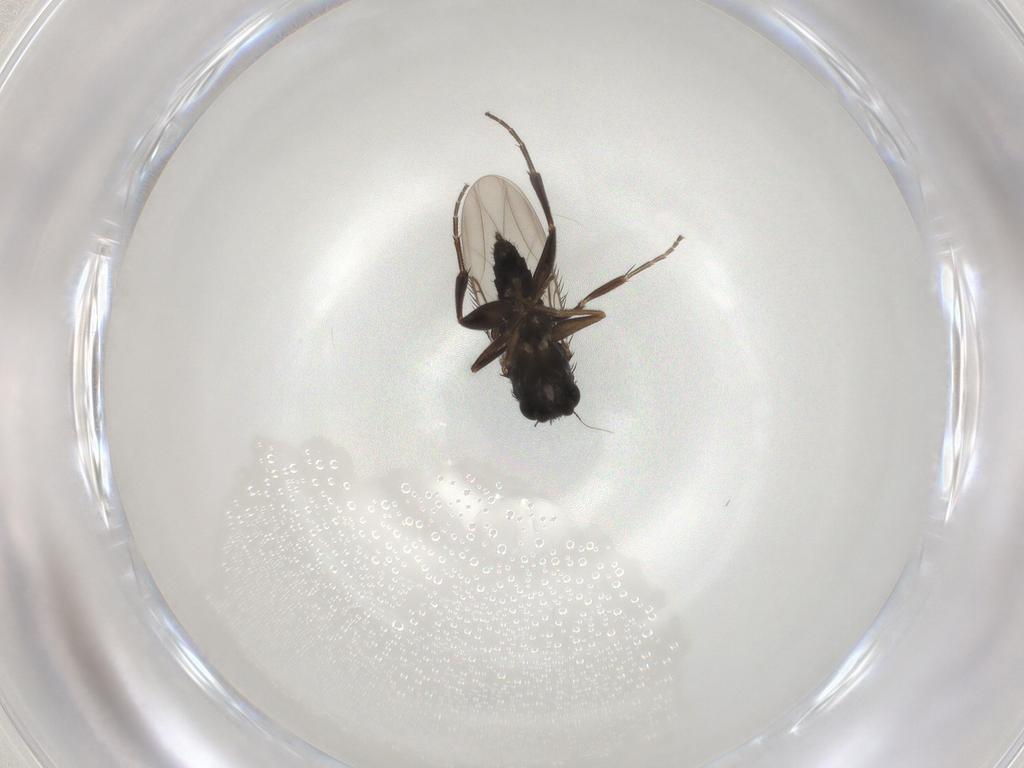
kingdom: Animalia
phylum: Arthropoda
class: Insecta
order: Diptera
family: Phoridae
